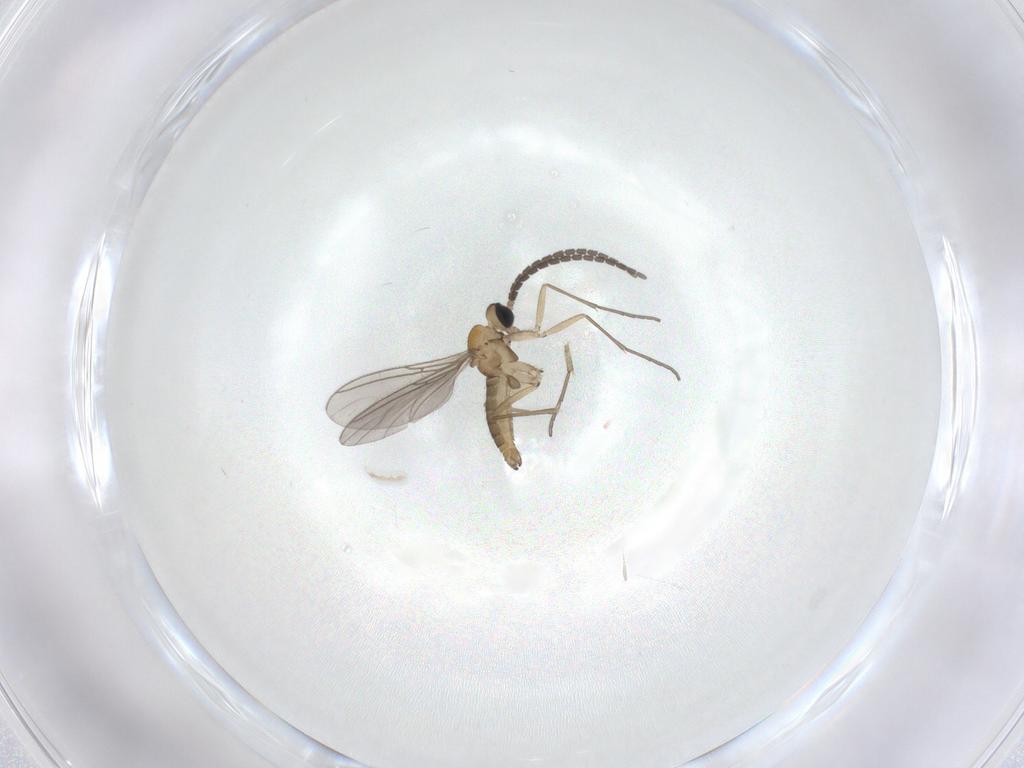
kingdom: Animalia
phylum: Arthropoda
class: Insecta
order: Diptera
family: Sciaridae
